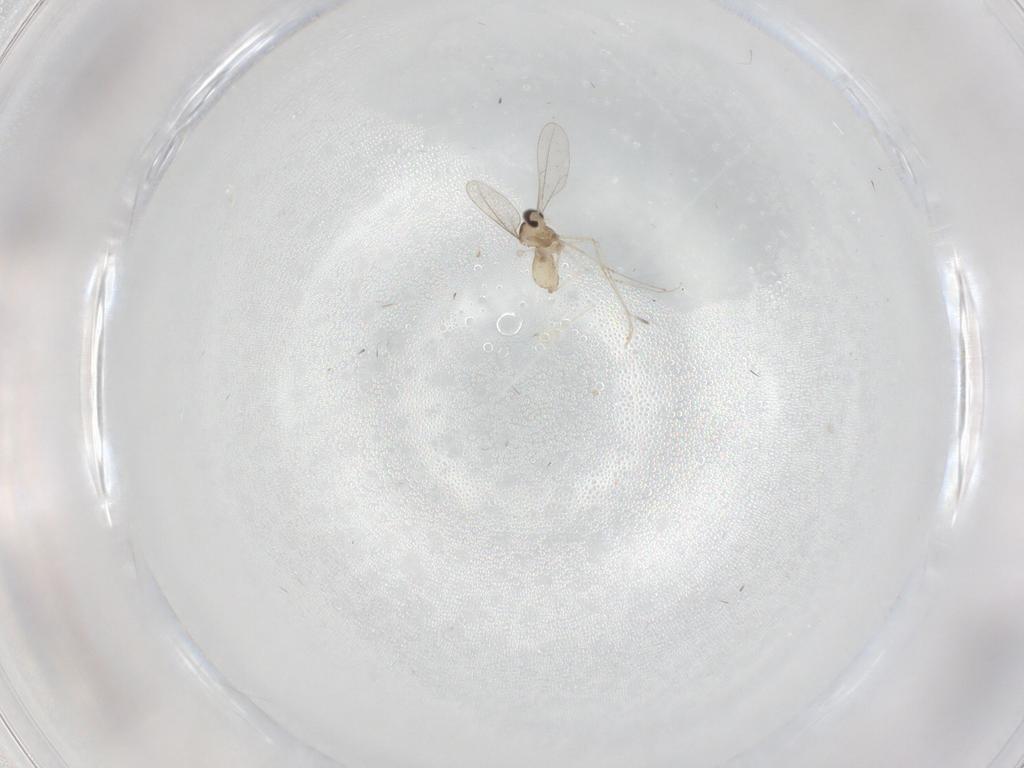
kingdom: Animalia
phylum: Arthropoda
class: Insecta
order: Diptera
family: Cecidomyiidae
